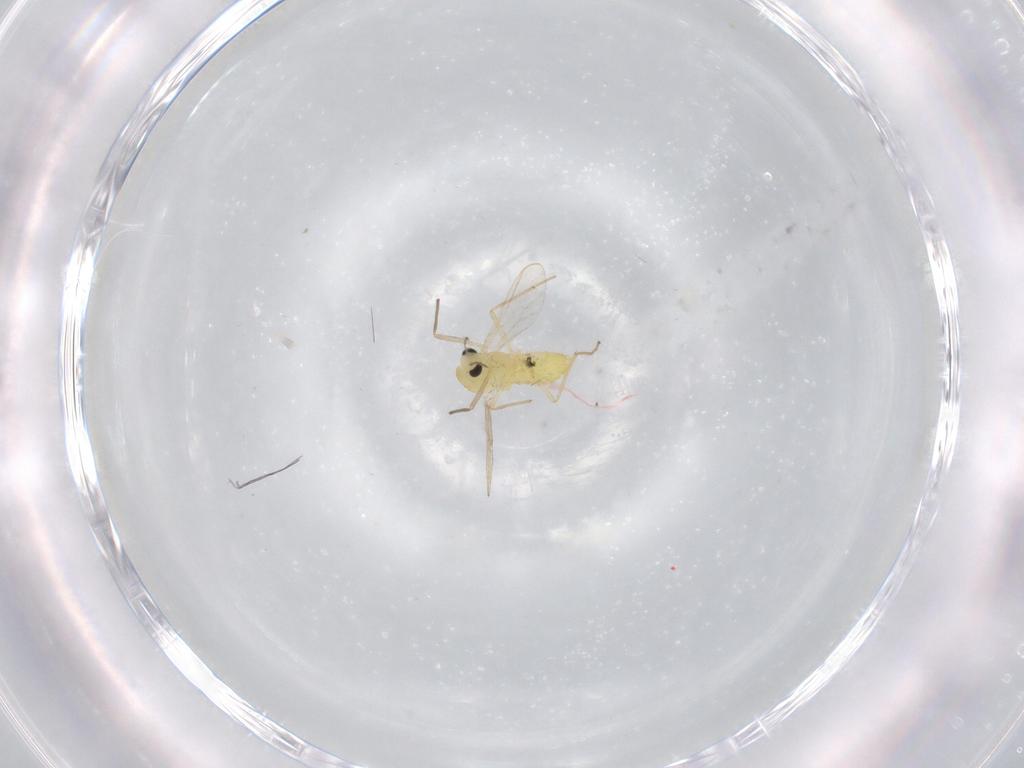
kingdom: Animalia
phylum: Arthropoda
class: Insecta
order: Diptera
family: Chironomidae
